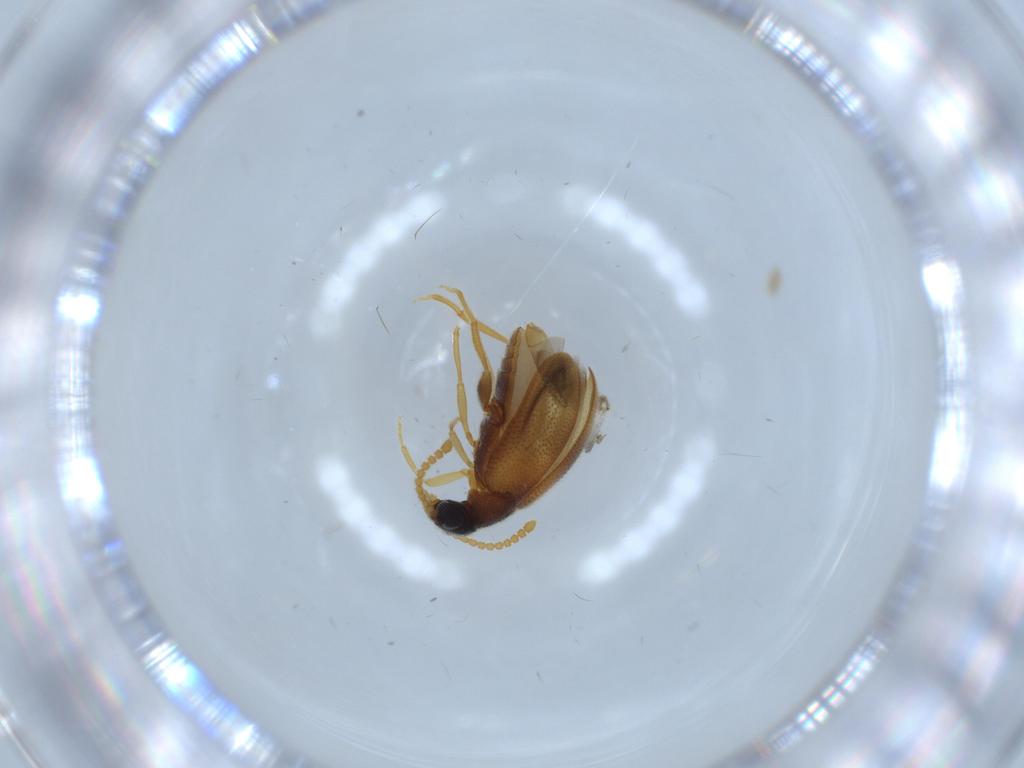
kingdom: Animalia
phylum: Arthropoda
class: Insecta
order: Coleoptera
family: Aderidae
